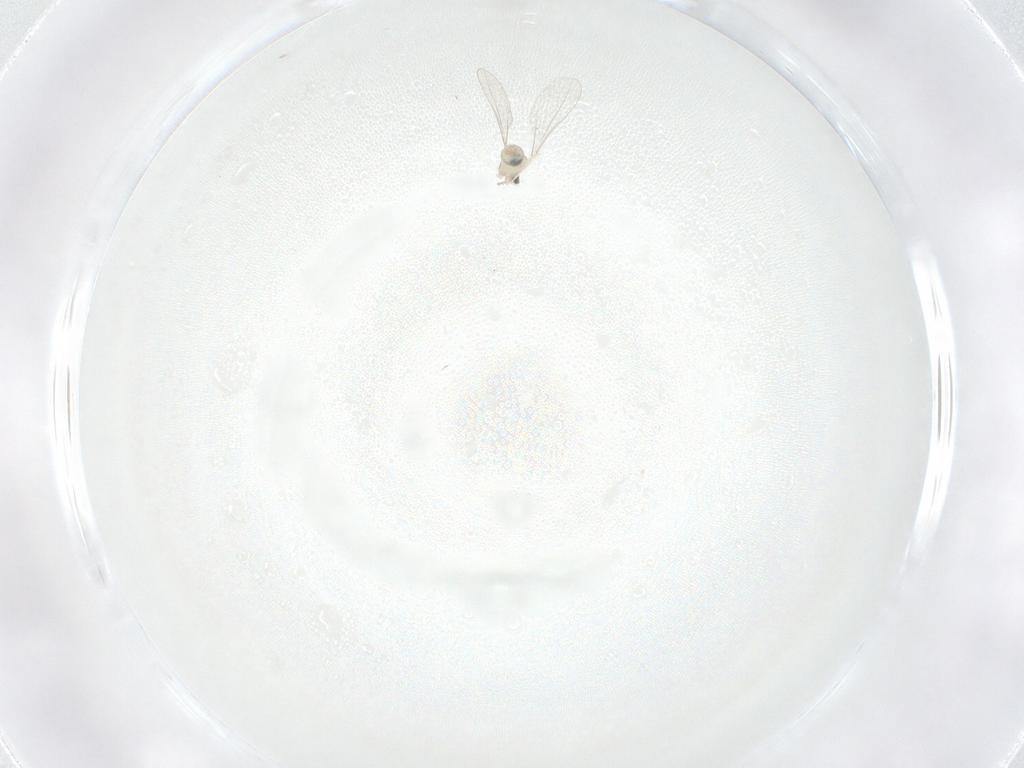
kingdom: Animalia
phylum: Arthropoda
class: Insecta
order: Diptera
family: Cecidomyiidae
